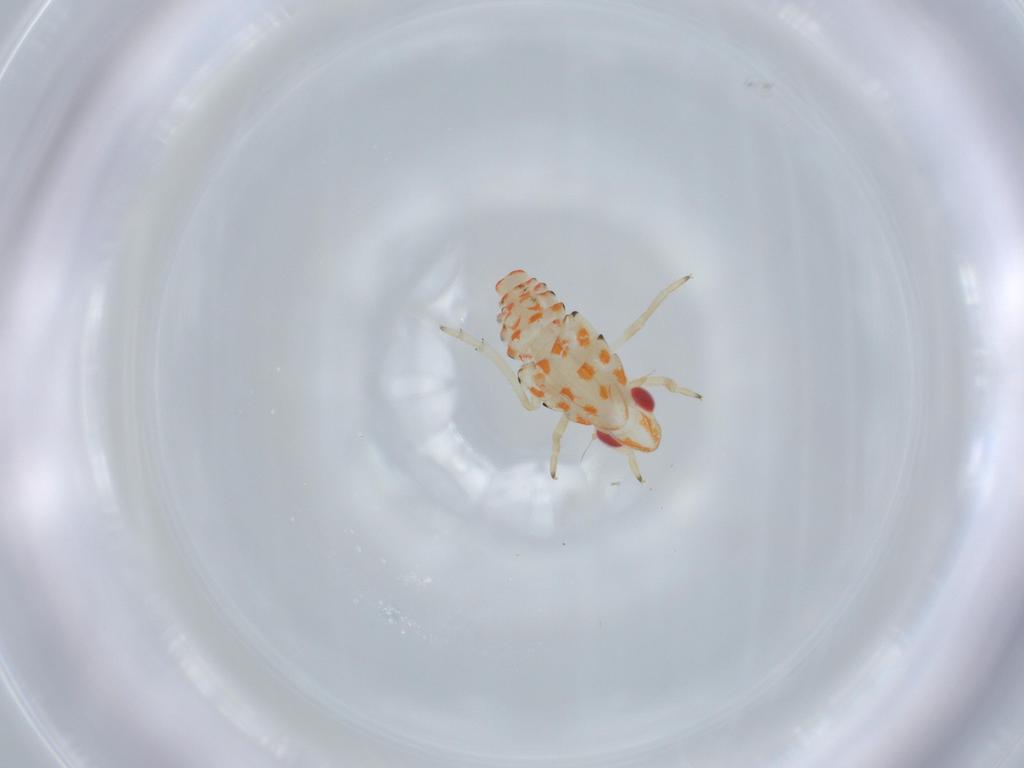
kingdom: Animalia
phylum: Arthropoda
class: Insecta
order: Hemiptera
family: Tropiduchidae
